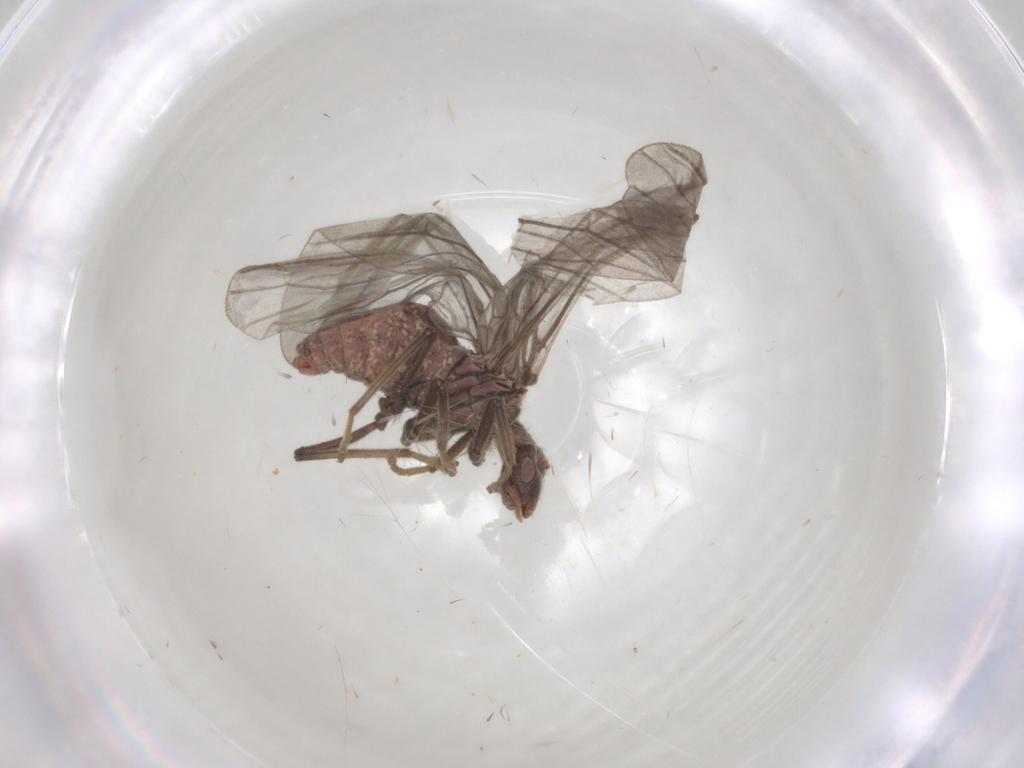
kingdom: Animalia
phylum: Arthropoda
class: Insecta
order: Neuroptera
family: Coniopterygidae
